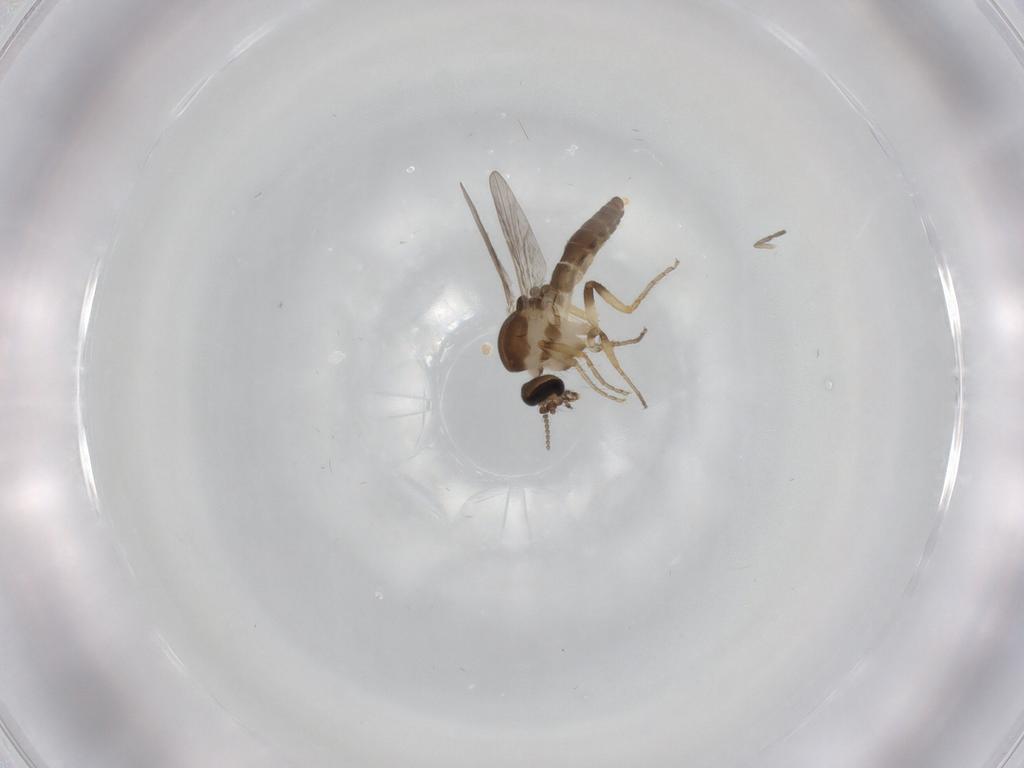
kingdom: Animalia
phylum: Arthropoda
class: Insecta
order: Diptera
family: Ceratopogonidae
